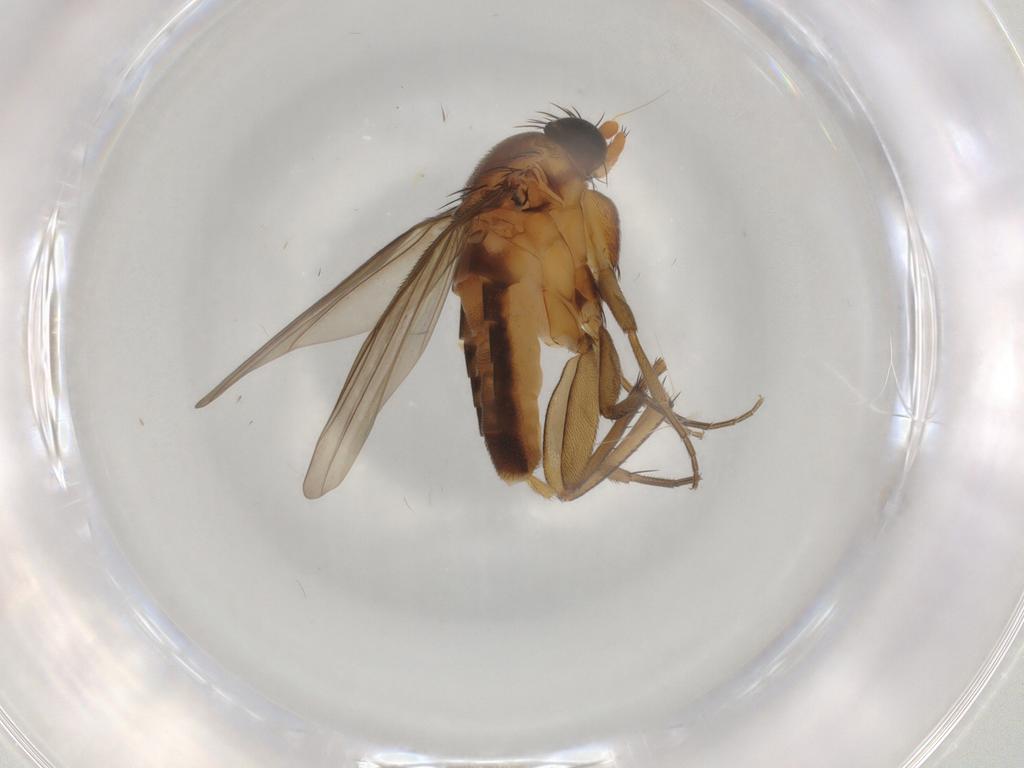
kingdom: Animalia
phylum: Arthropoda
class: Insecta
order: Diptera
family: Phoridae
